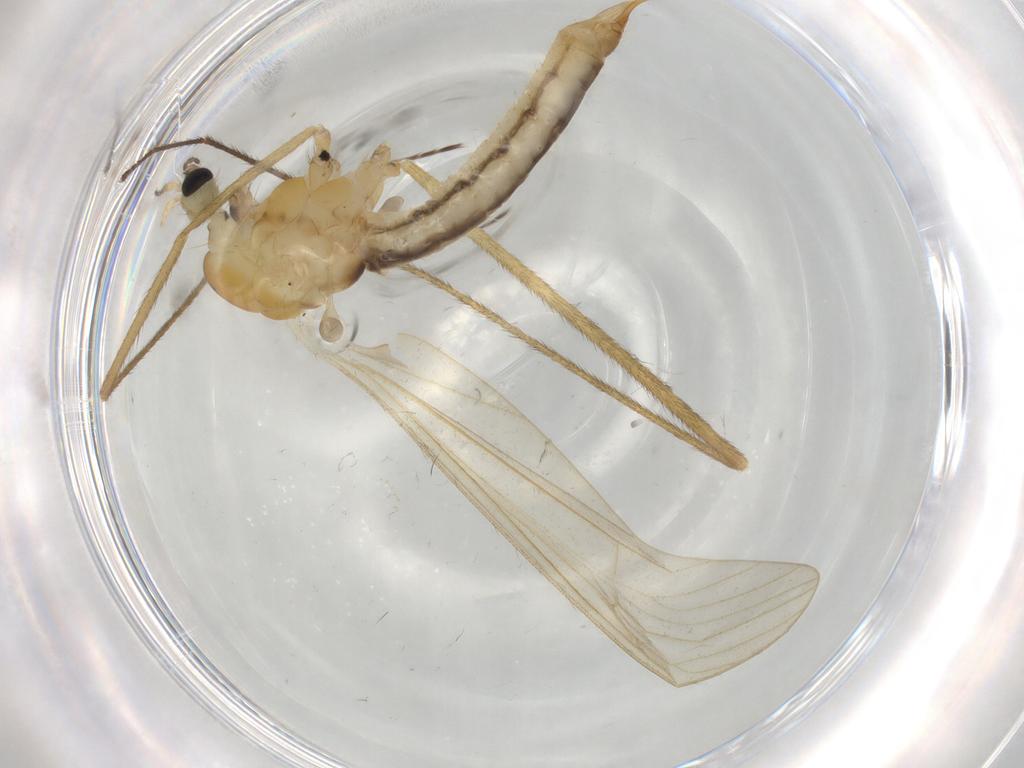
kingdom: Animalia
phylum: Arthropoda
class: Insecta
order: Diptera
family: Limoniidae
